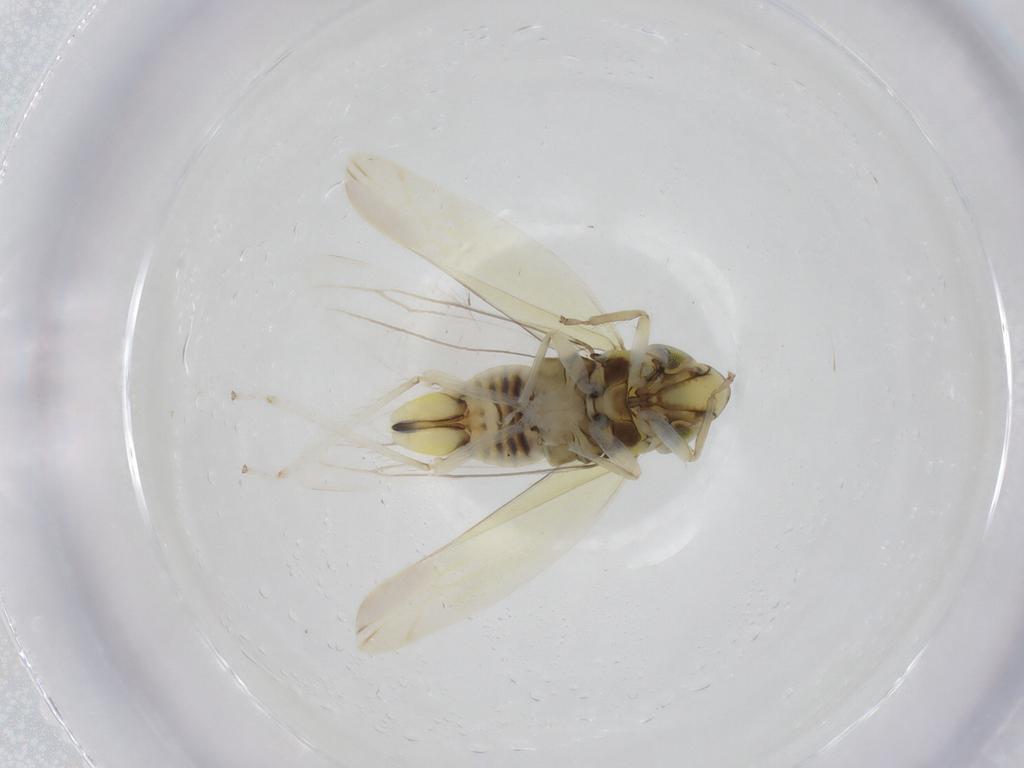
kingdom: Animalia
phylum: Arthropoda
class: Insecta
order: Hemiptera
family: Cicadellidae
